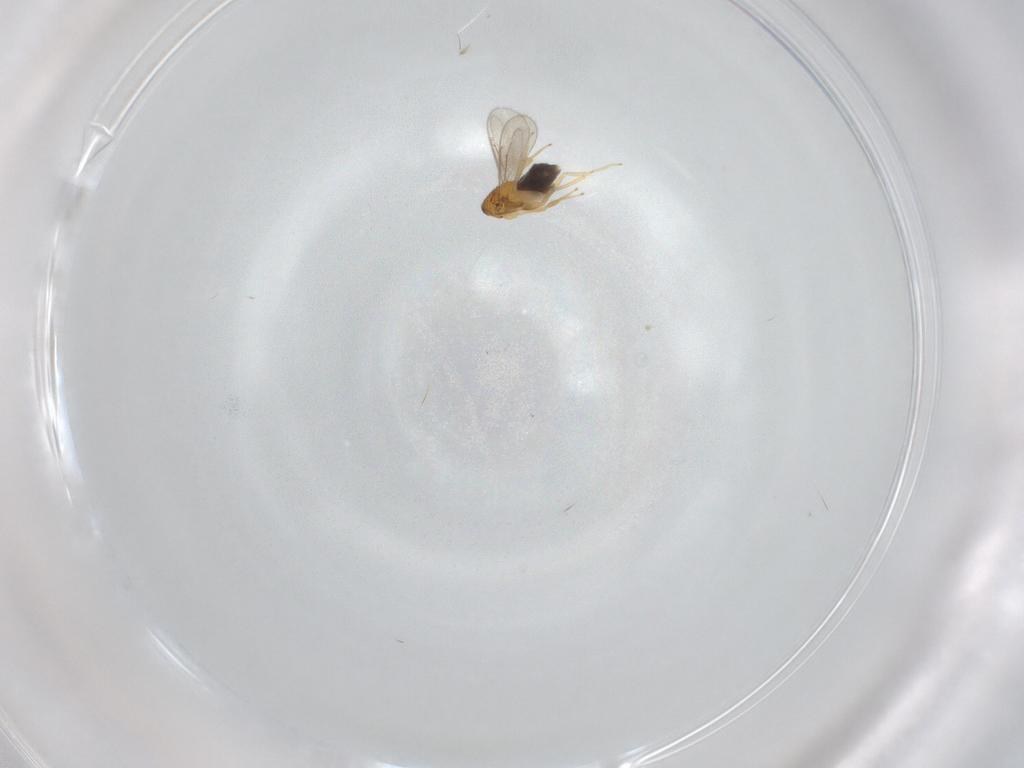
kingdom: Animalia
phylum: Arthropoda
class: Insecta
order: Hymenoptera
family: Aphelinidae
